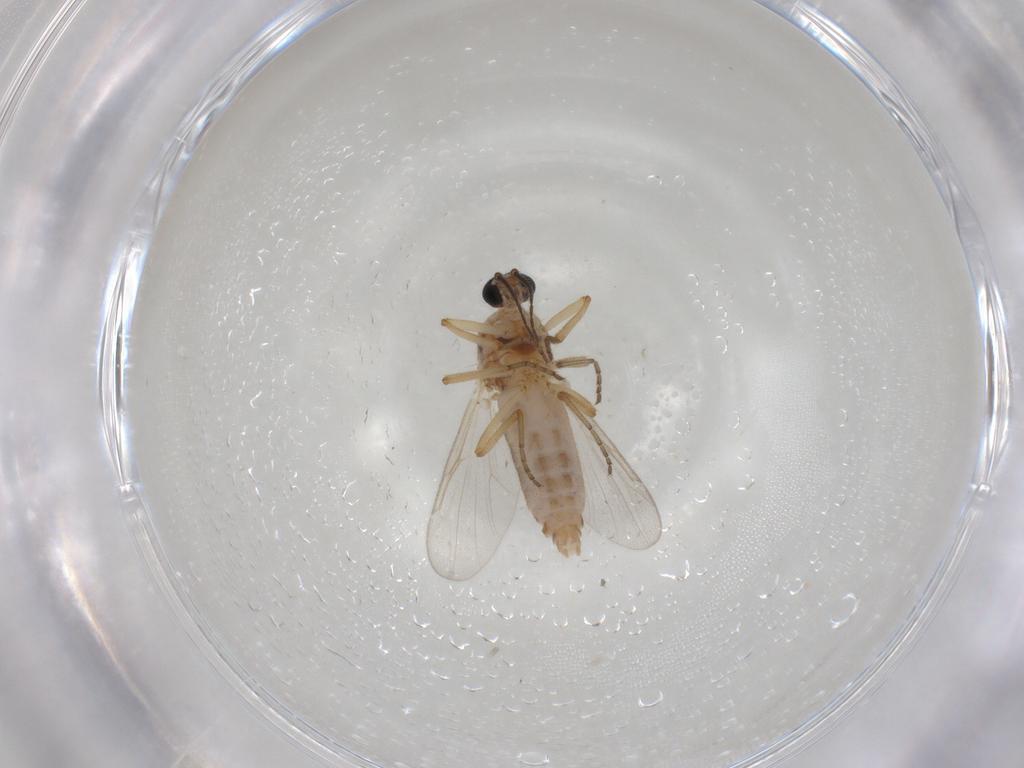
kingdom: Animalia
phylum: Arthropoda
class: Insecta
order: Diptera
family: Ceratopogonidae
